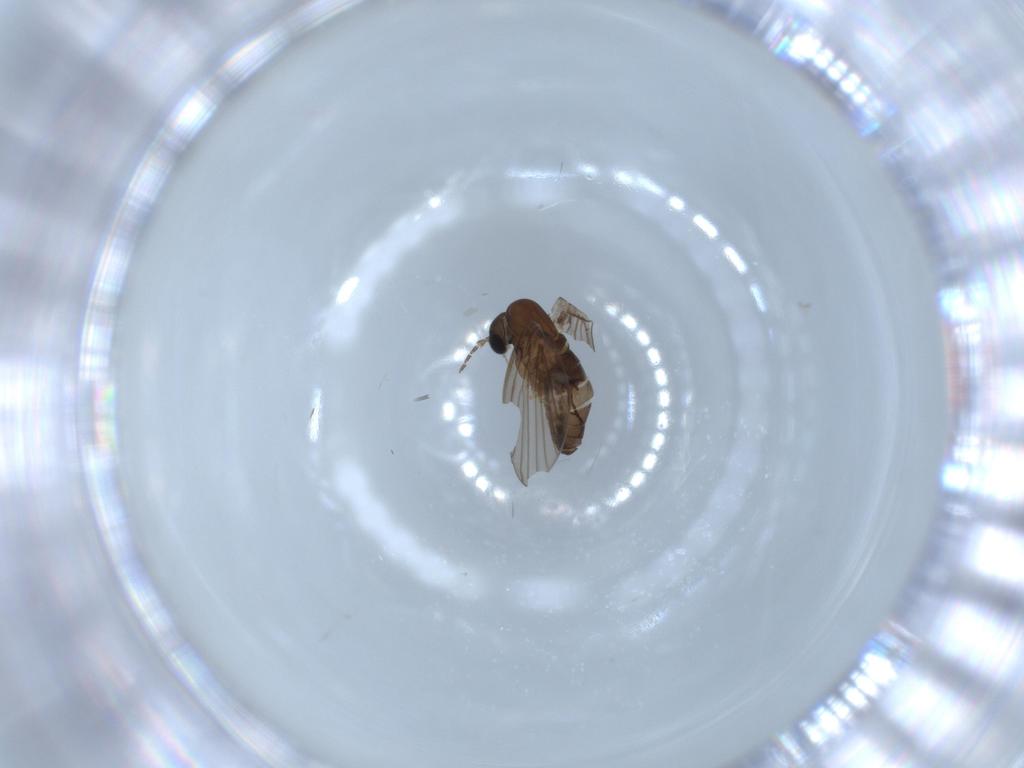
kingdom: Animalia
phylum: Arthropoda
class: Insecta
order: Diptera
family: Psychodidae
